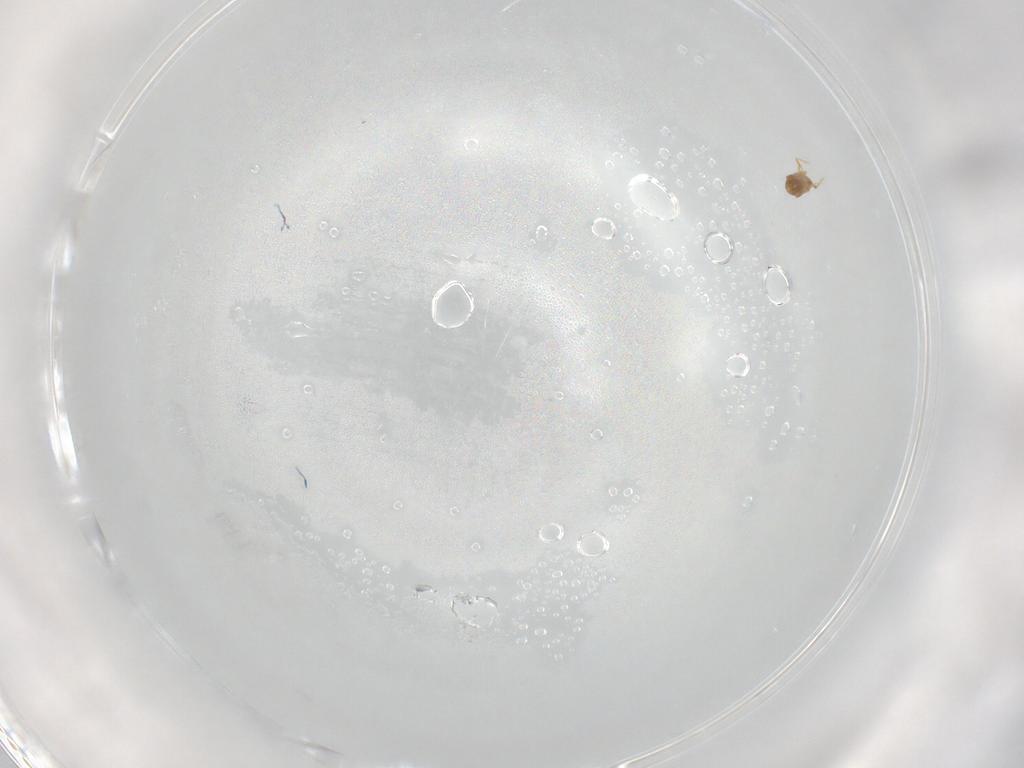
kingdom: Animalia
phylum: Arthropoda
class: Insecta
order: Hemiptera
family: Diaspididae
